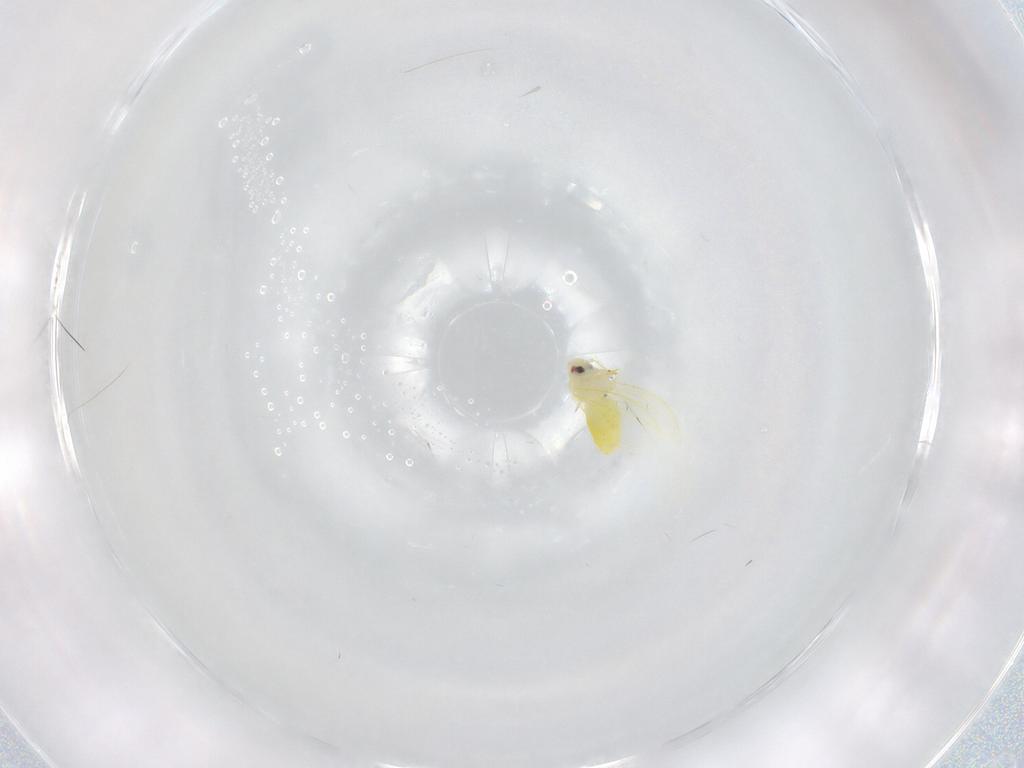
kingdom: Animalia
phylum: Arthropoda
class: Insecta
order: Hemiptera
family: Aleyrodidae
